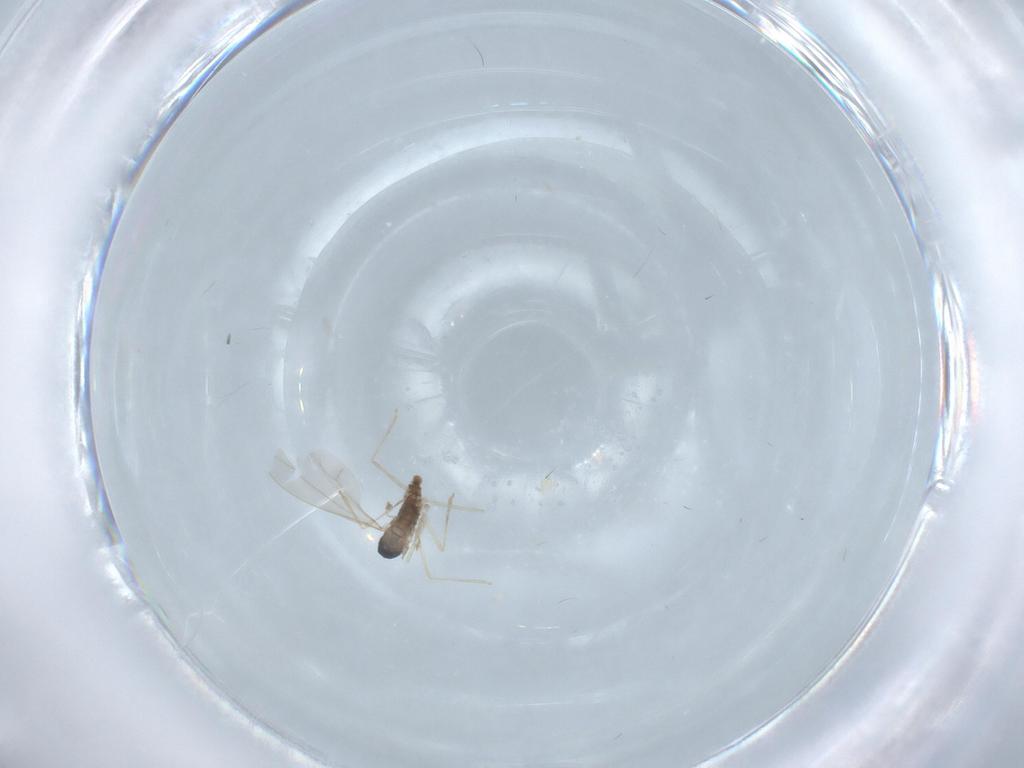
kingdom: Animalia
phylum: Arthropoda
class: Insecta
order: Diptera
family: Cecidomyiidae
